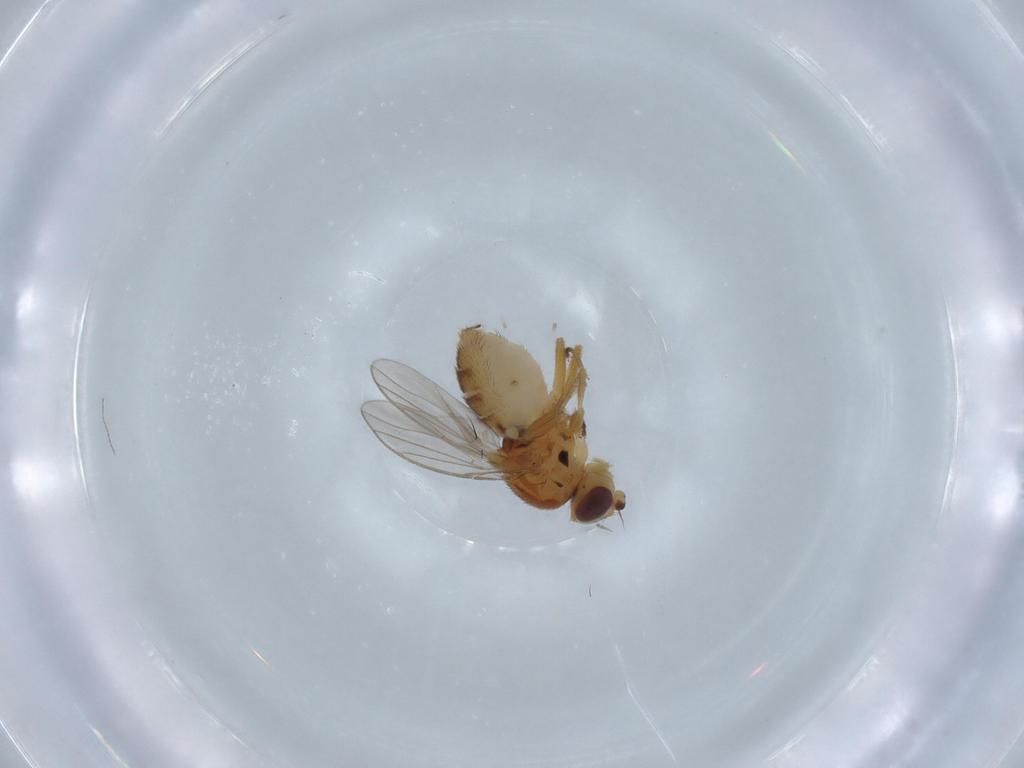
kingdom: Animalia
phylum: Arthropoda
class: Insecta
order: Diptera
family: Chloropidae
